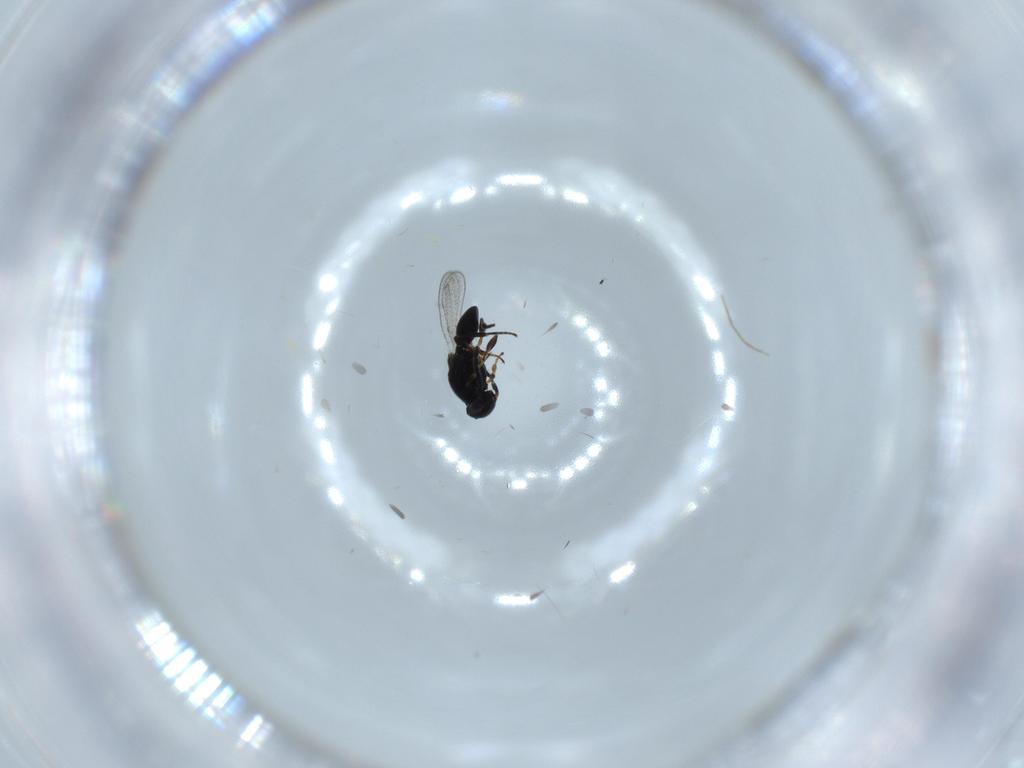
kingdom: Animalia
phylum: Arthropoda
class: Insecta
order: Hymenoptera
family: Platygastridae
